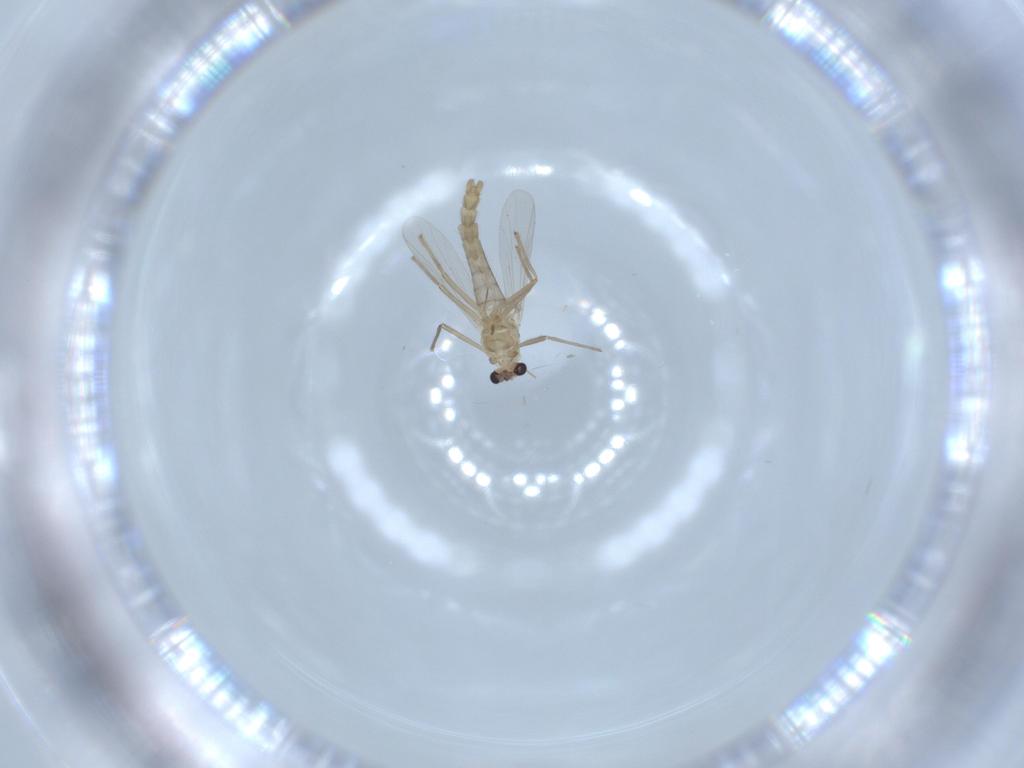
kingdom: Animalia
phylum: Arthropoda
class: Insecta
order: Diptera
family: Chironomidae
